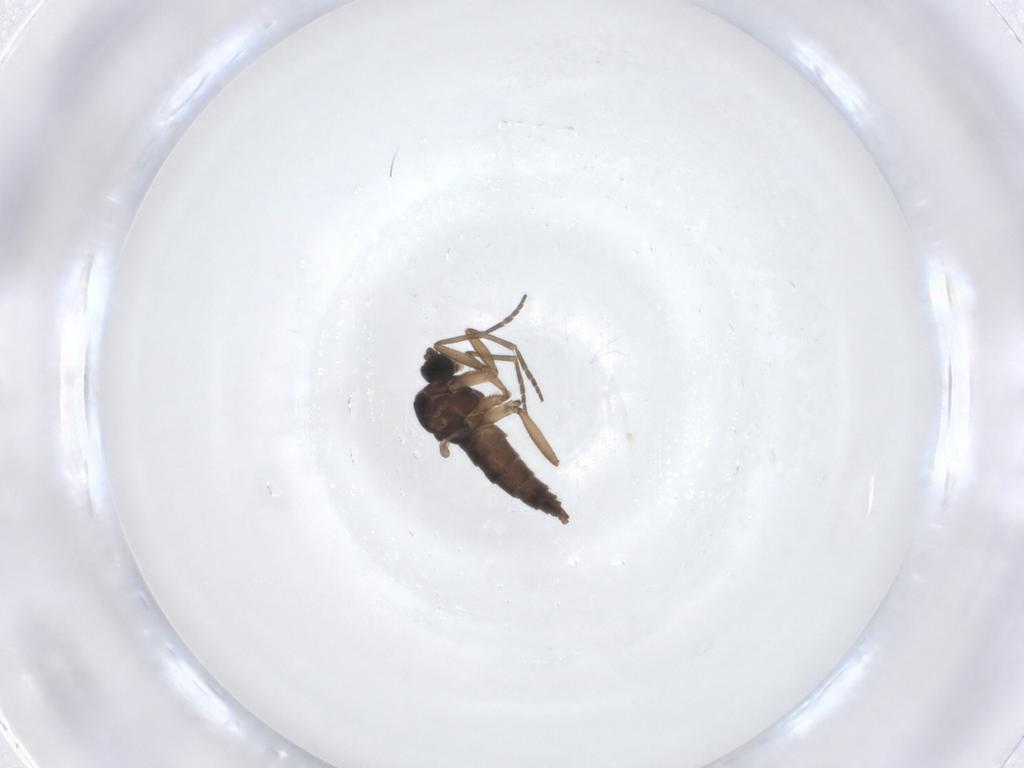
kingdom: Animalia
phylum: Arthropoda
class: Insecta
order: Diptera
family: Sciaridae
